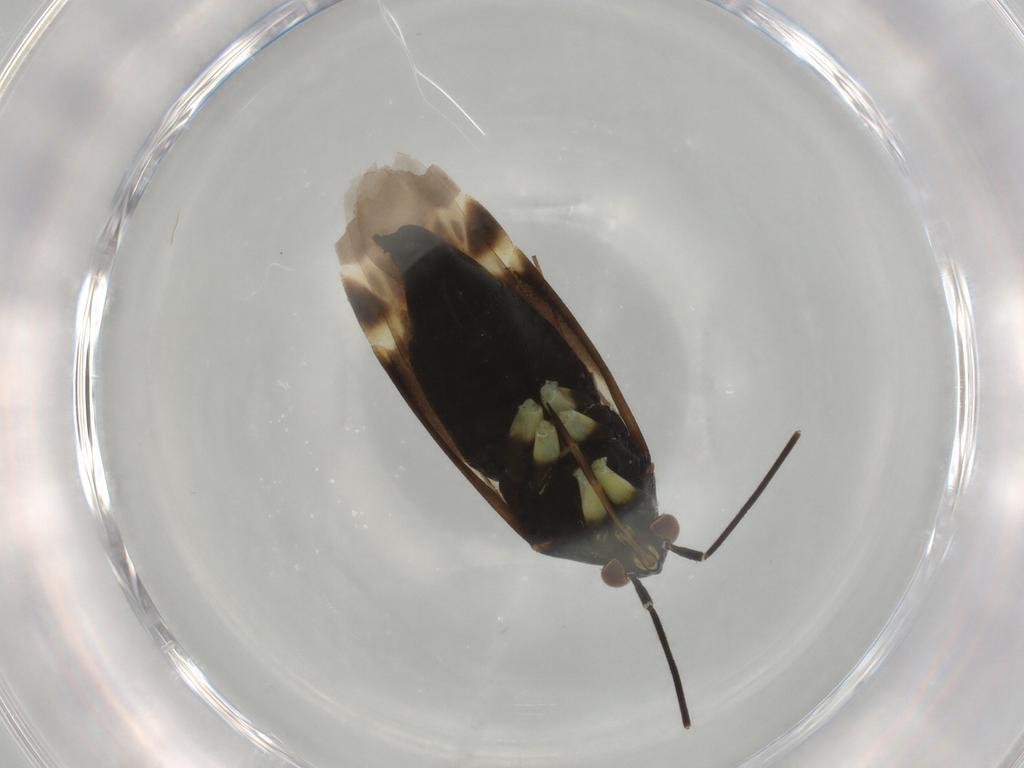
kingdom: Animalia
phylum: Arthropoda
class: Insecta
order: Hemiptera
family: Miridae
